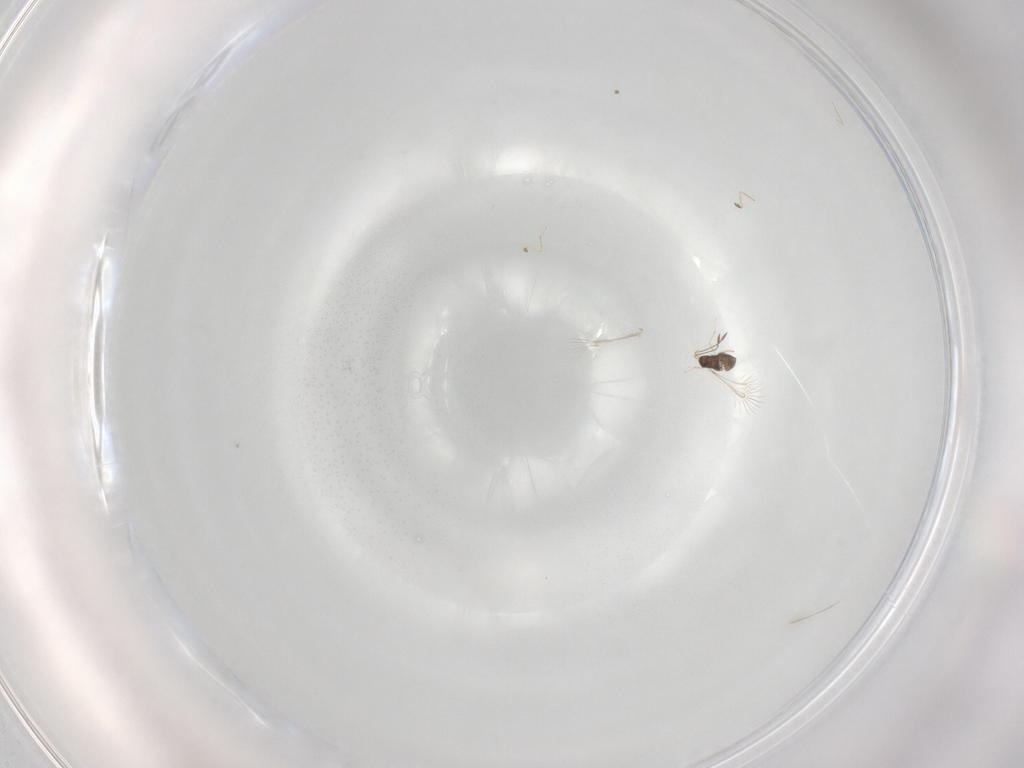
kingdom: Animalia
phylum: Arthropoda
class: Insecta
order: Hymenoptera
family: Mymaridae
